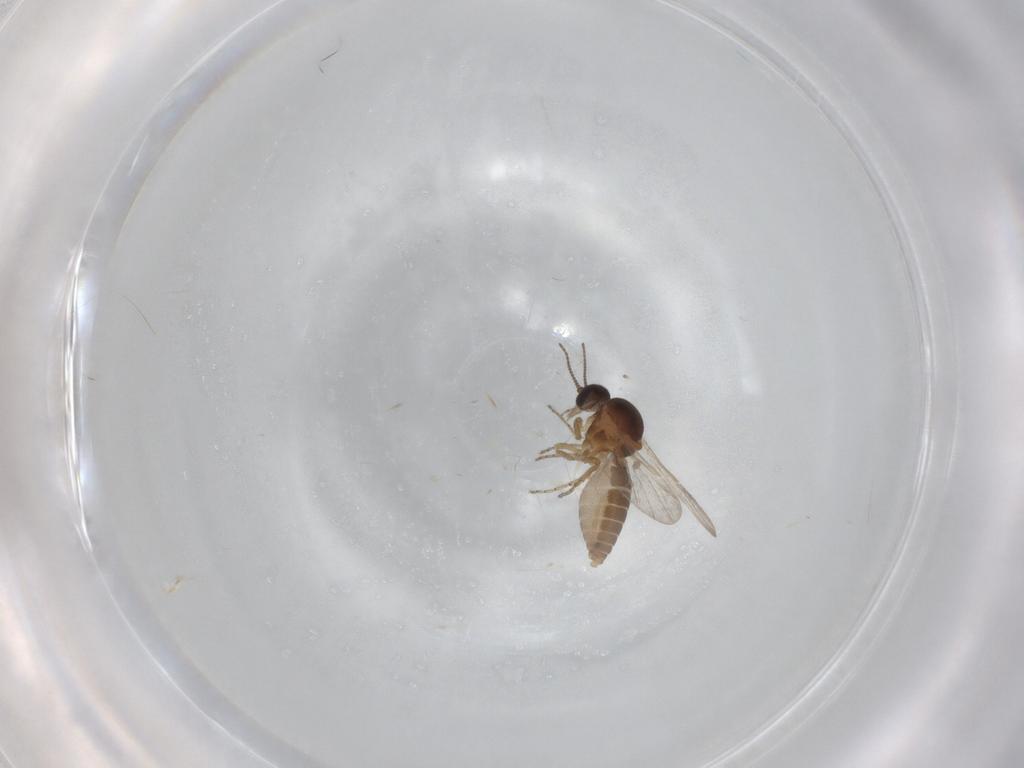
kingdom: Animalia
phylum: Arthropoda
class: Insecta
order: Diptera
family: Ceratopogonidae
